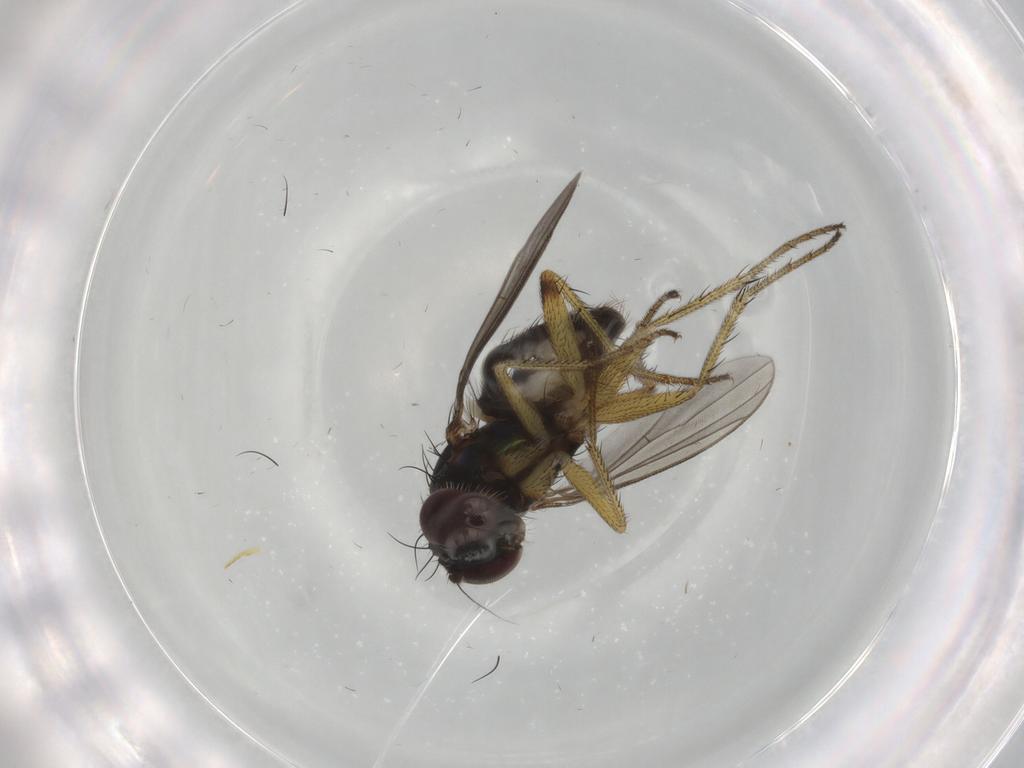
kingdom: Animalia
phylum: Arthropoda
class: Insecta
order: Diptera
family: Dolichopodidae
